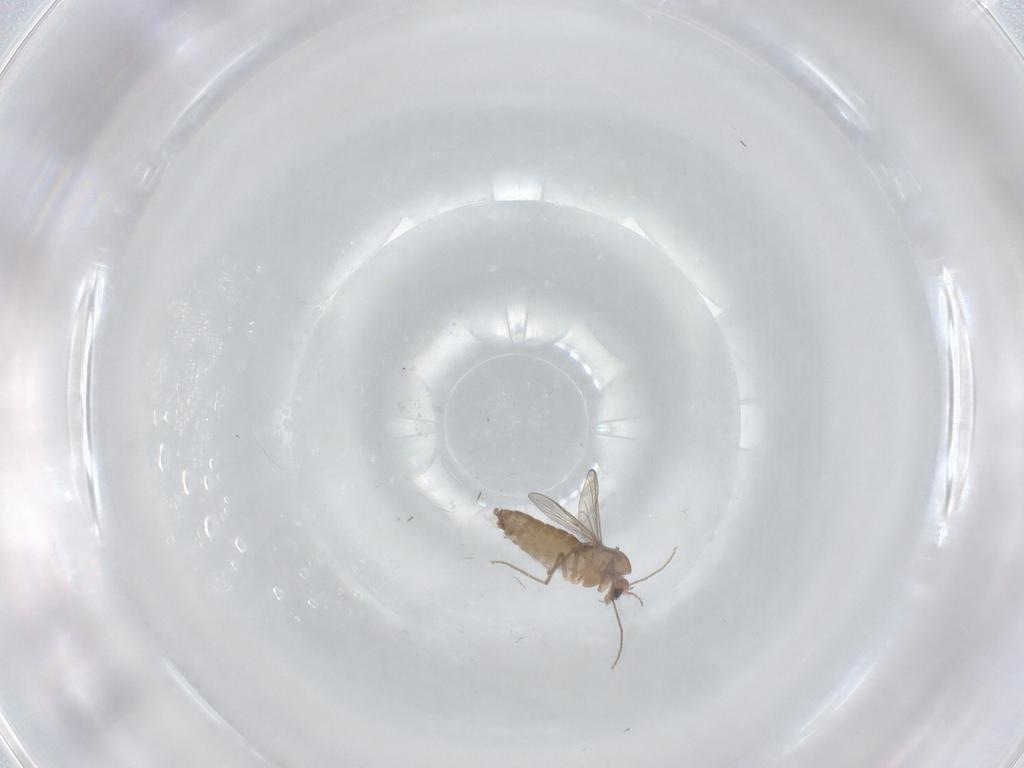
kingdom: Animalia
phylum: Arthropoda
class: Insecta
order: Diptera
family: Chironomidae
